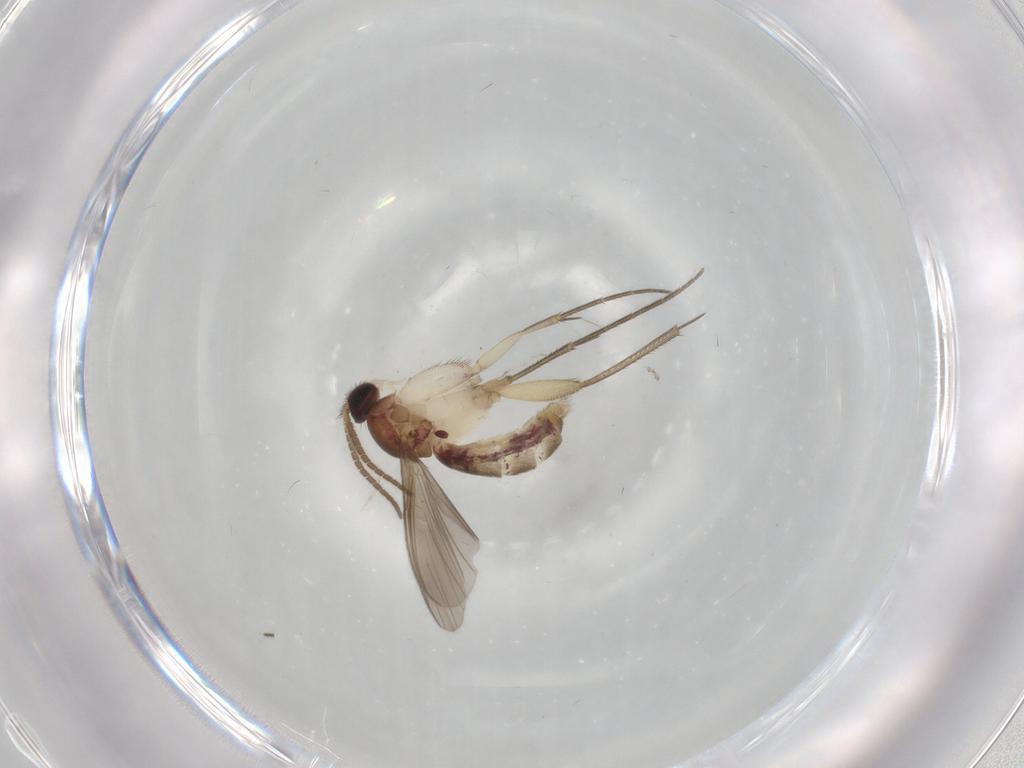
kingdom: Animalia
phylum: Arthropoda
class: Insecta
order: Diptera
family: Mycetophilidae
